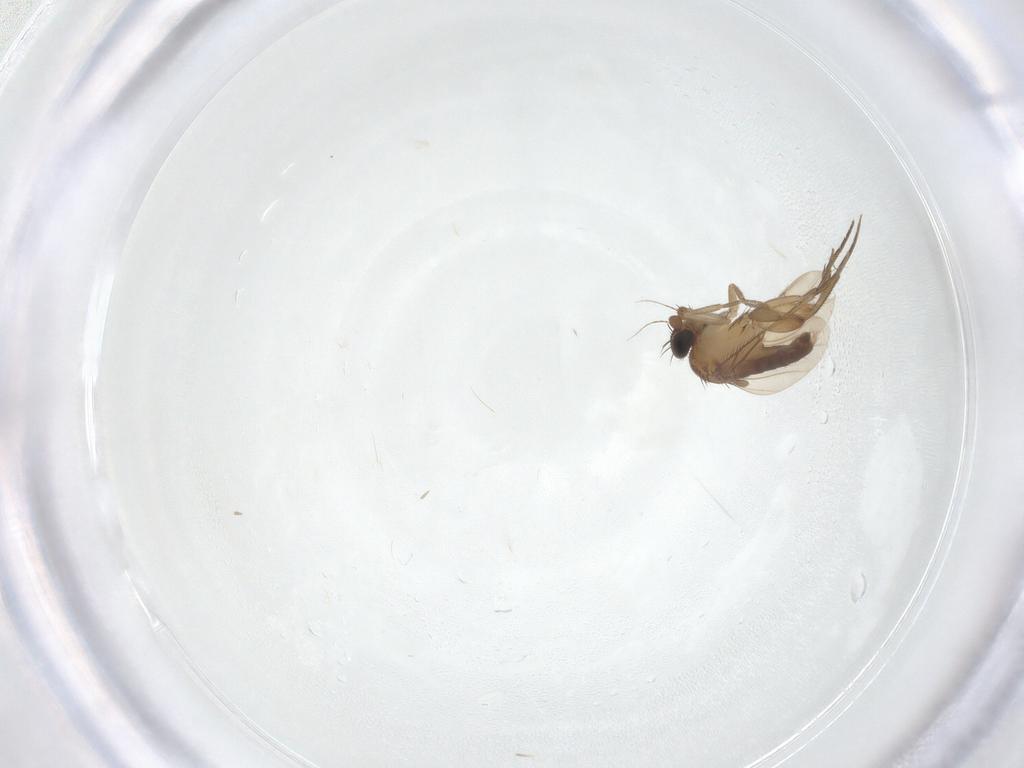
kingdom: Animalia
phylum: Arthropoda
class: Insecta
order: Diptera
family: Phoridae
